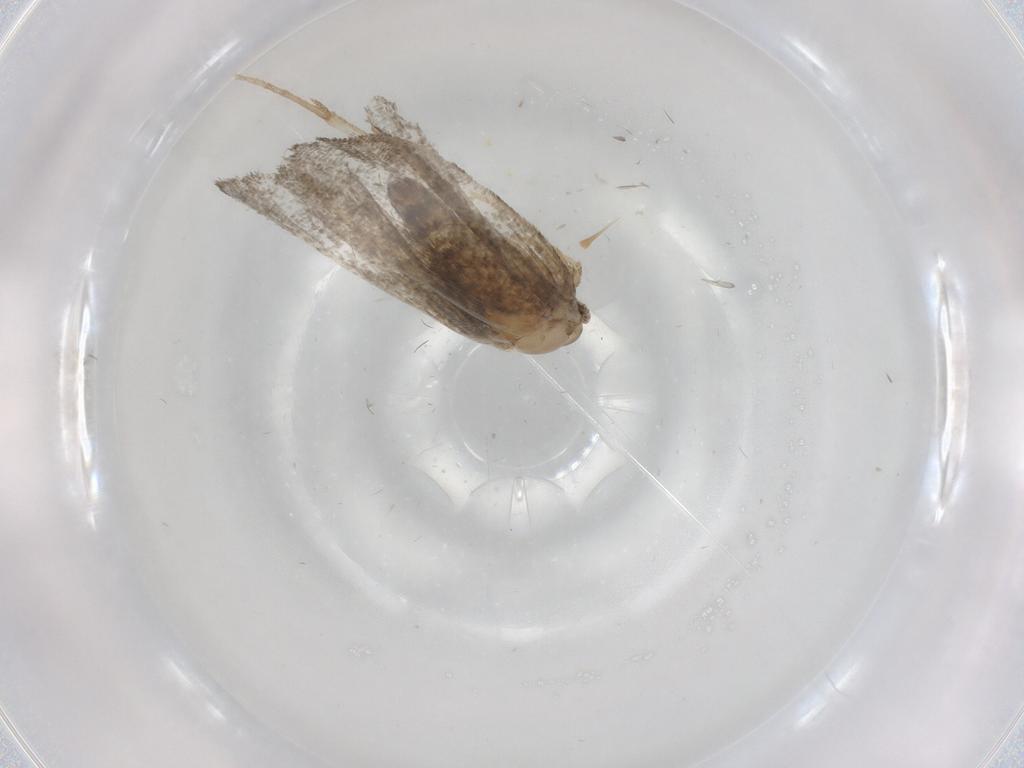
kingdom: Animalia
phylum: Arthropoda
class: Insecta
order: Lepidoptera
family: Psychidae
